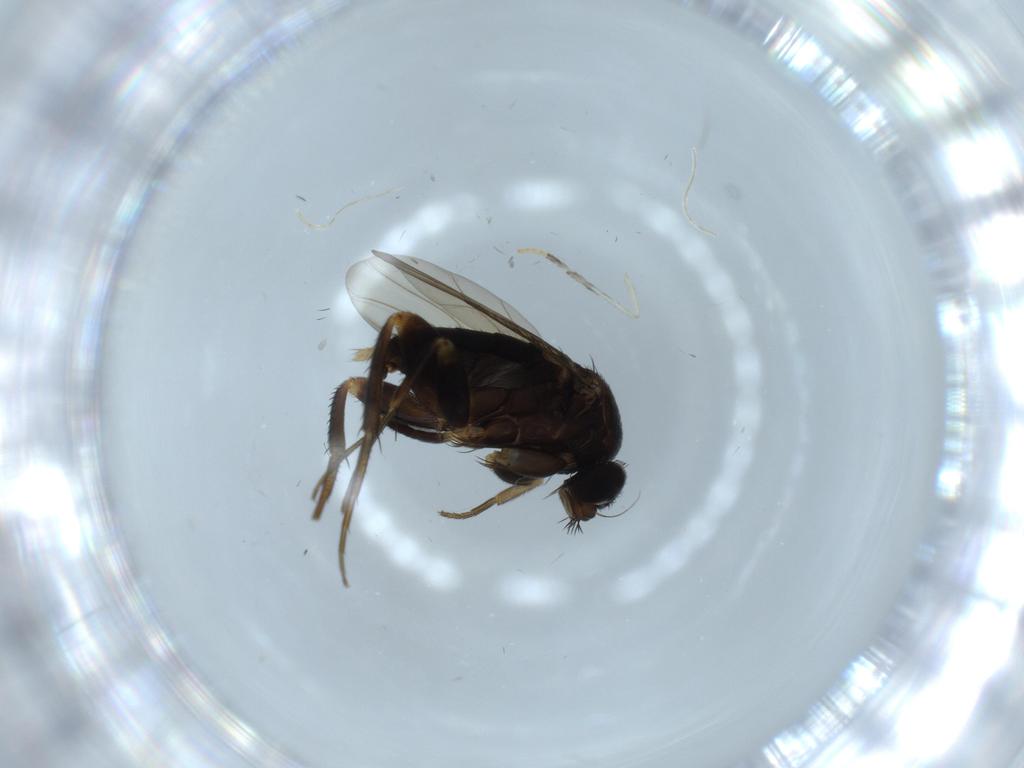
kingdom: Animalia
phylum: Arthropoda
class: Insecta
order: Diptera
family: Phoridae
